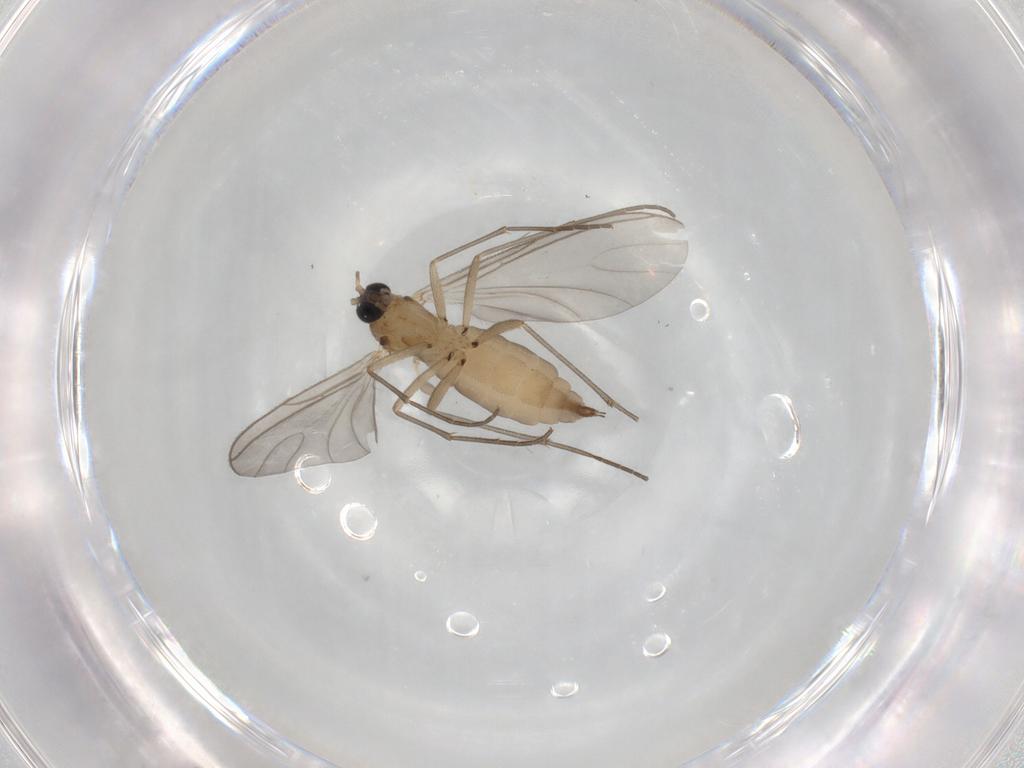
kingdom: Animalia
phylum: Arthropoda
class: Insecta
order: Diptera
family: Sciaridae
